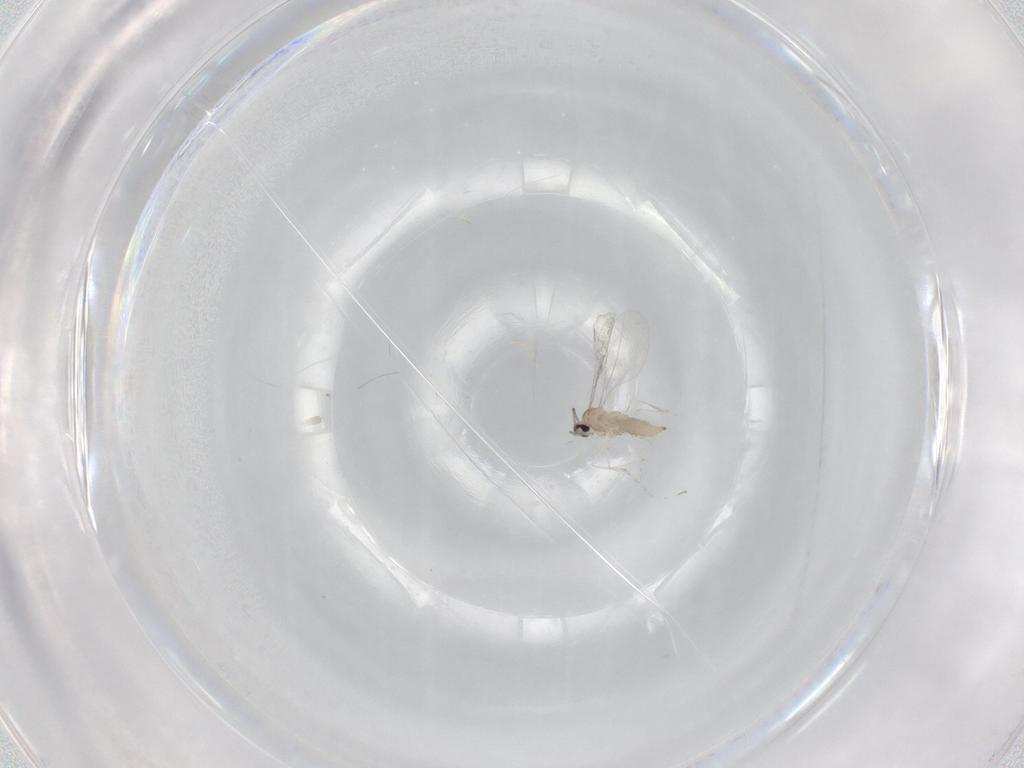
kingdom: Animalia
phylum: Arthropoda
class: Insecta
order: Diptera
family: Cecidomyiidae
